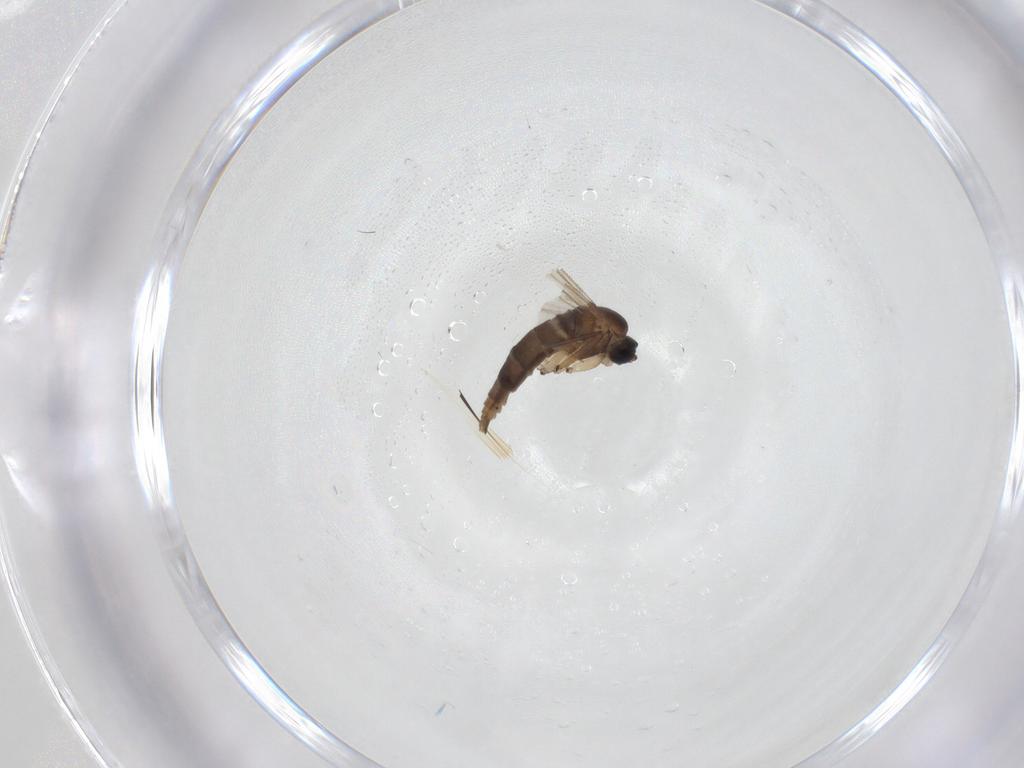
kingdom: Animalia
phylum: Arthropoda
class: Insecta
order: Diptera
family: Sciaridae
